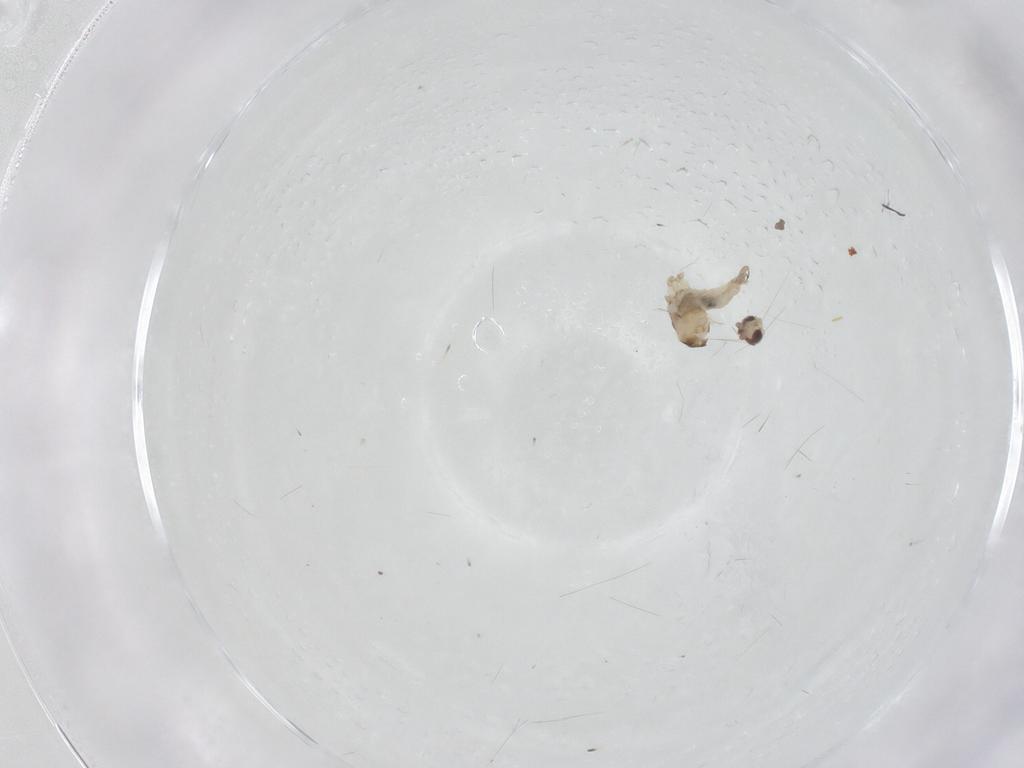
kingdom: Animalia
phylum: Arthropoda
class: Insecta
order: Diptera
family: Cecidomyiidae
